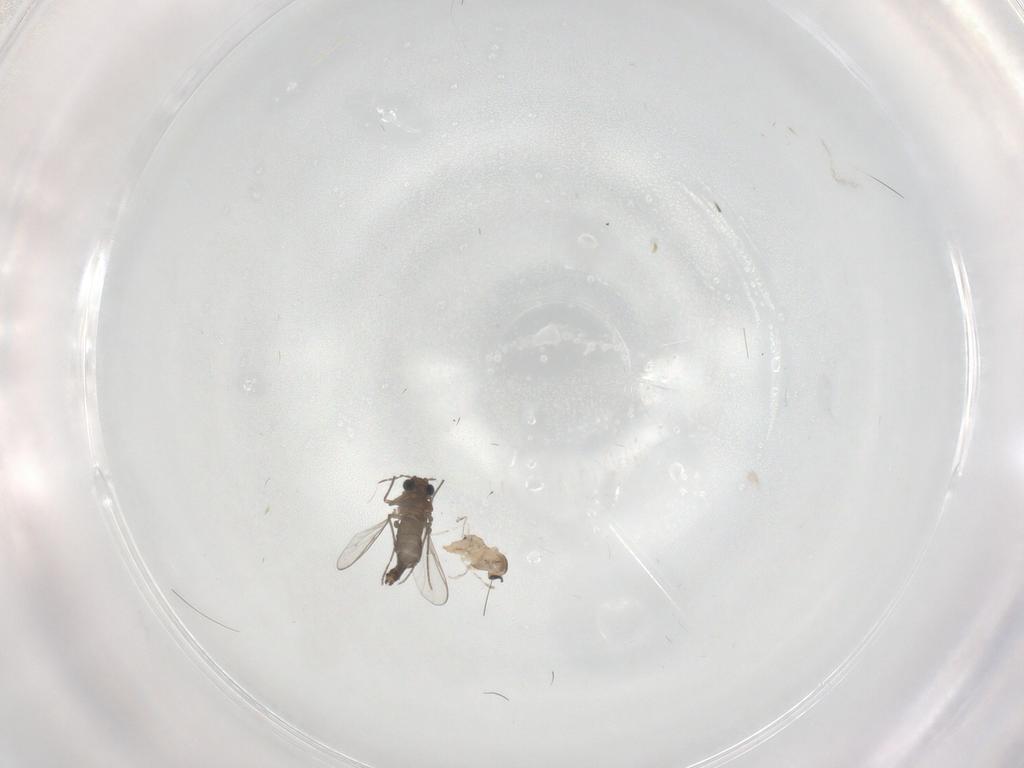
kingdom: Animalia
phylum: Arthropoda
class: Insecta
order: Diptera
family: Cecidomyiidae
